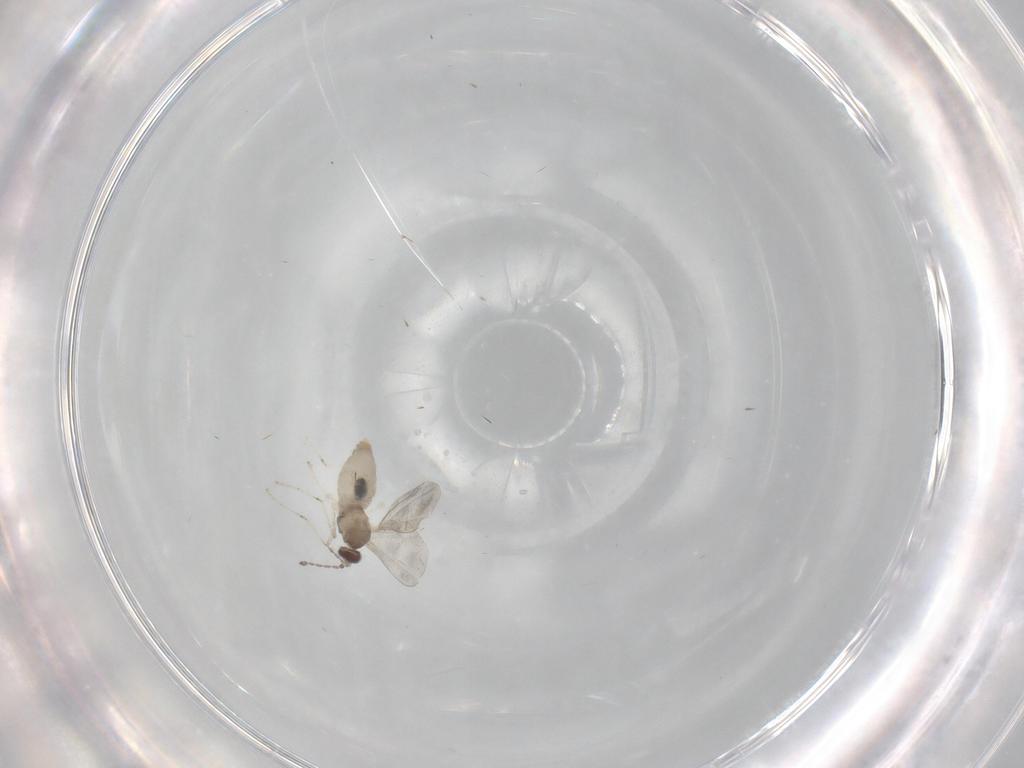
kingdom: Animalia
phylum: Arthropoda
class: Insecta
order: Diptera
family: Cecidomyiidae
